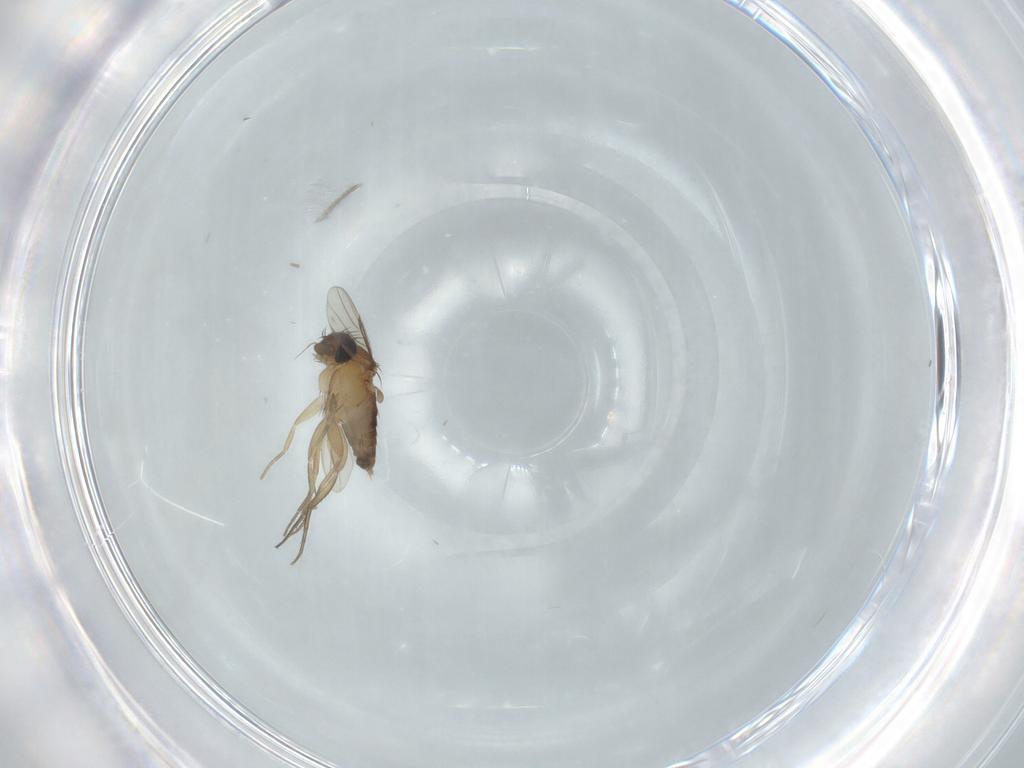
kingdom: Animalia
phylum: Arthropoda
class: Insecta
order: Diptera
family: Phoridae
